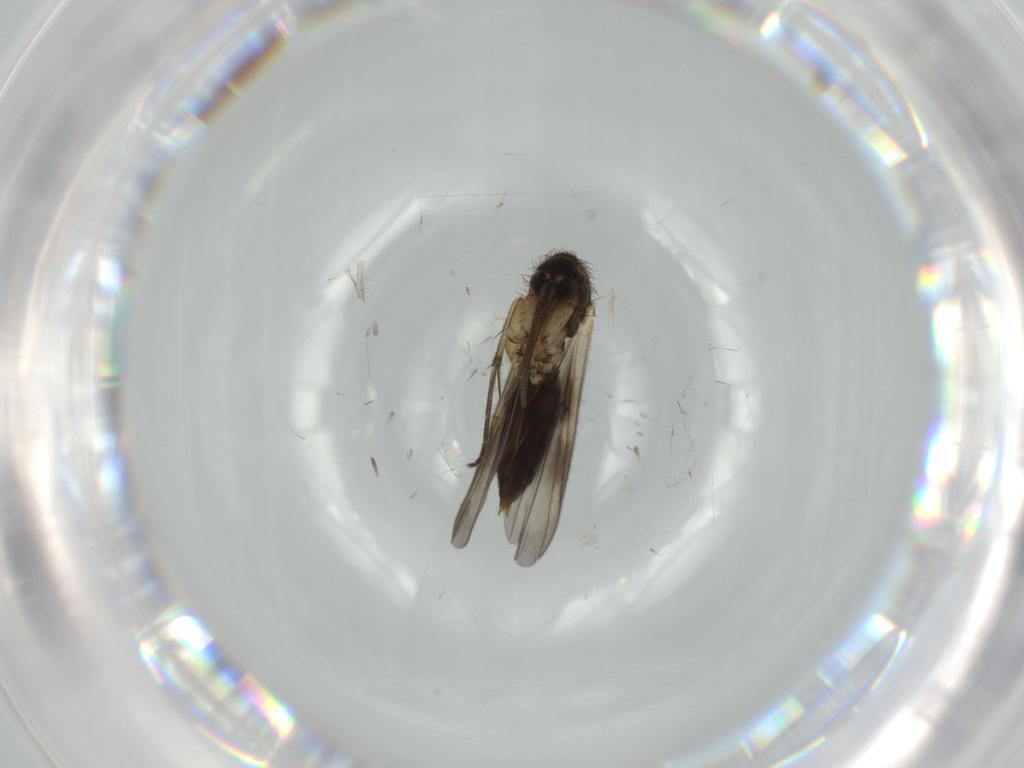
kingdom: Animalia
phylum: Arthropoda
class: Insecta
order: Diptera
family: Mycetophilidae
